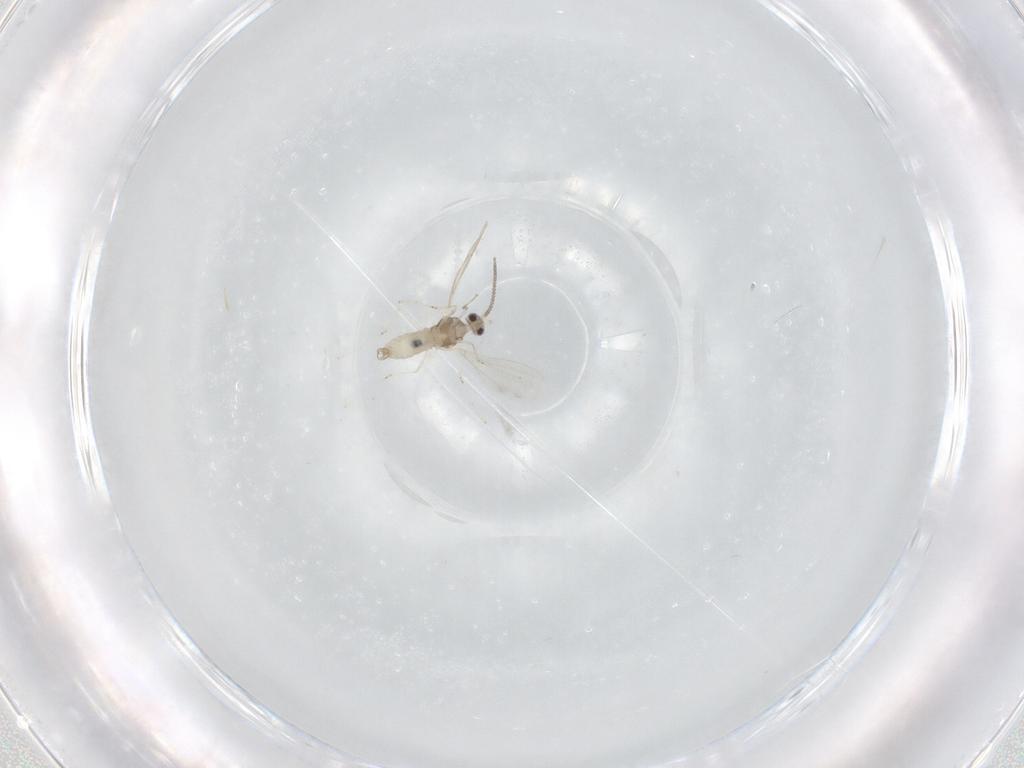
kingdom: Animalia
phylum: Arthropoda
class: Insecta
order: Diptera
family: Cecidomyiidae
